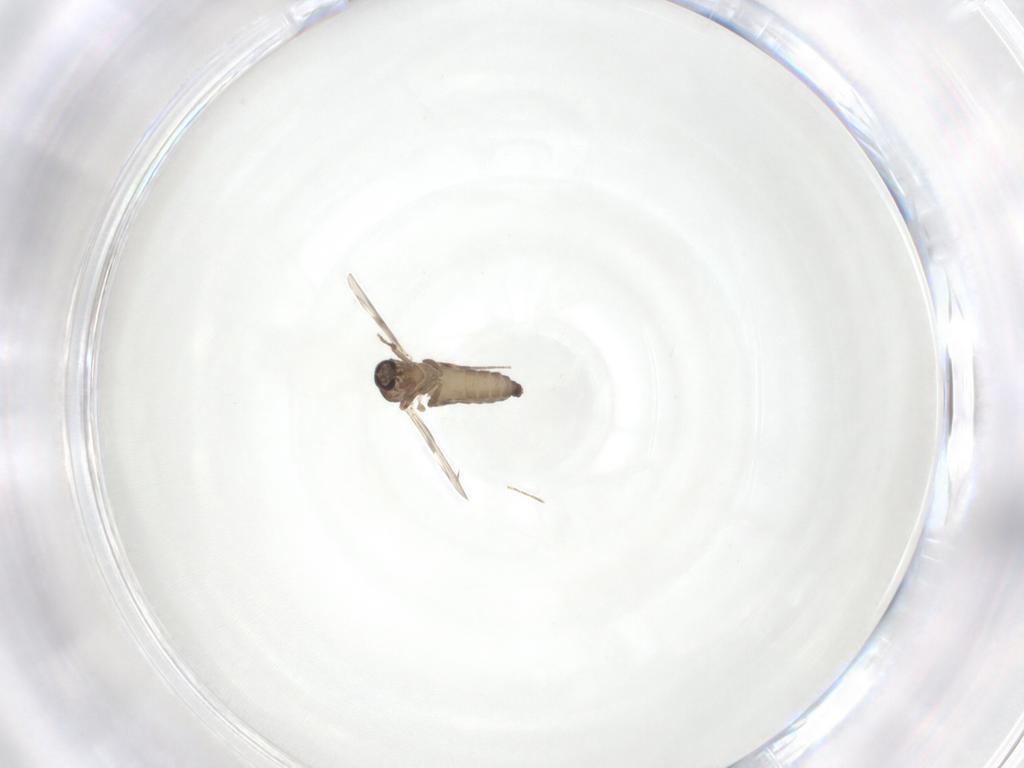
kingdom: Animalia
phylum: Arthropoda
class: Insecta
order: Diptera
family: Ceratopogonidae
